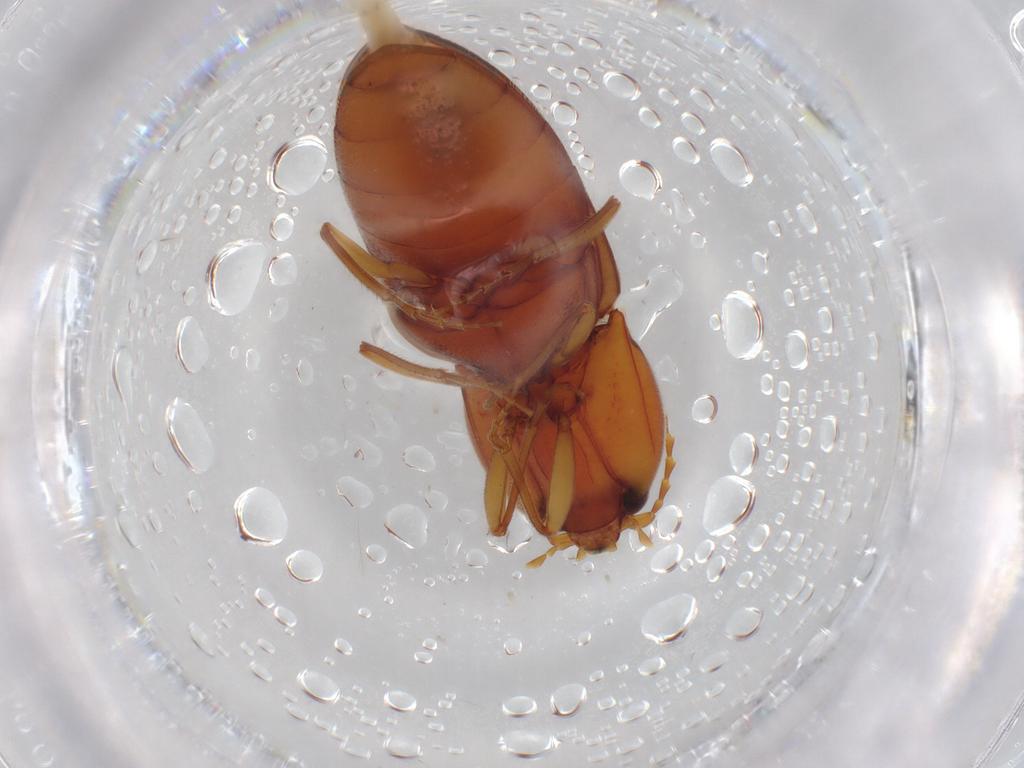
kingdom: Animalia
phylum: Arthropoda
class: Insecta
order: Coleoptera
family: Elateridae
